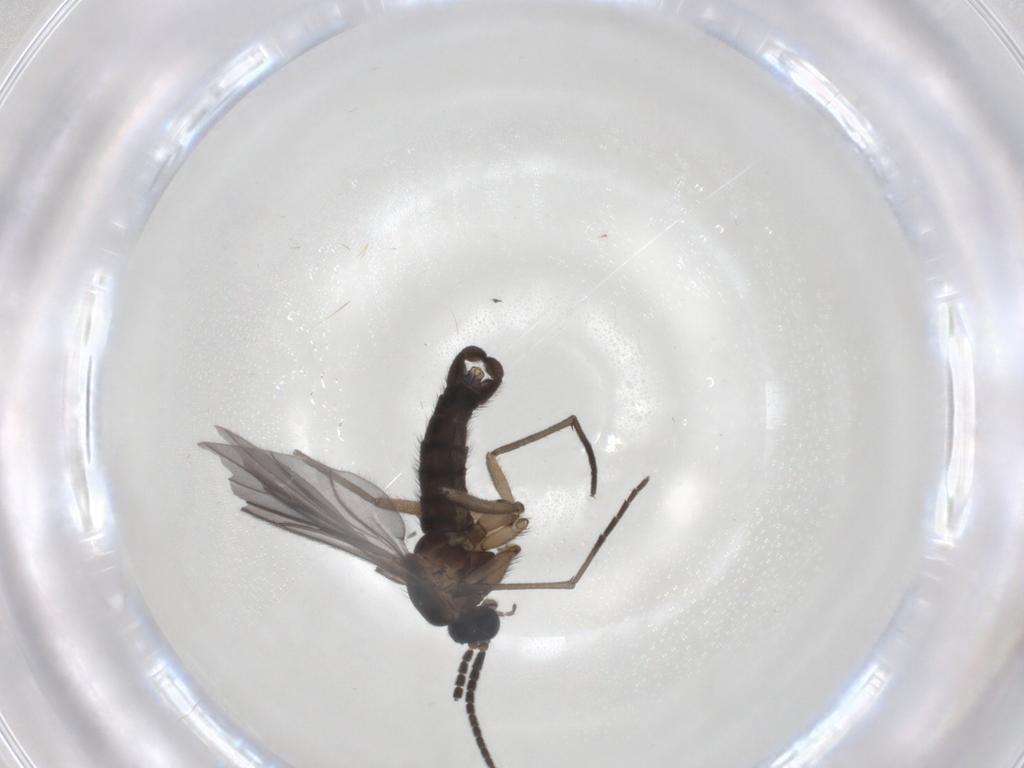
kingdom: Animalia
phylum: Arthropoda
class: Insecta
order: Diptera
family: Sciaridae
